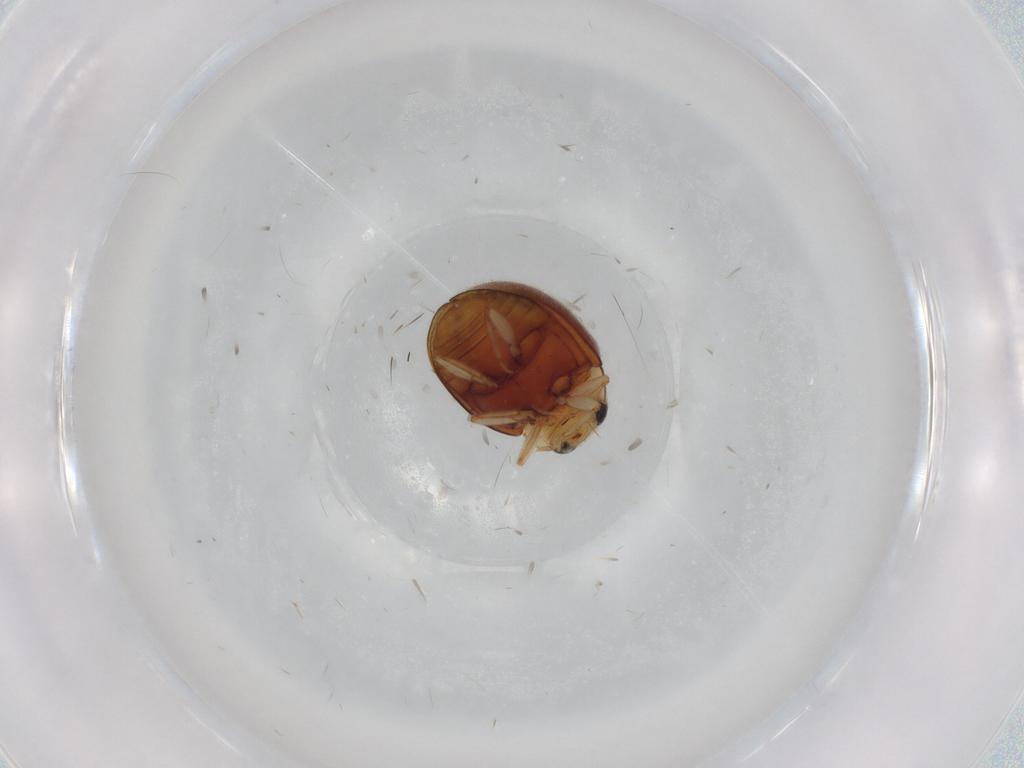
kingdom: Animalia
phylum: Arthropoda
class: Insecta
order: Coleoptera
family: Coccinellidae
